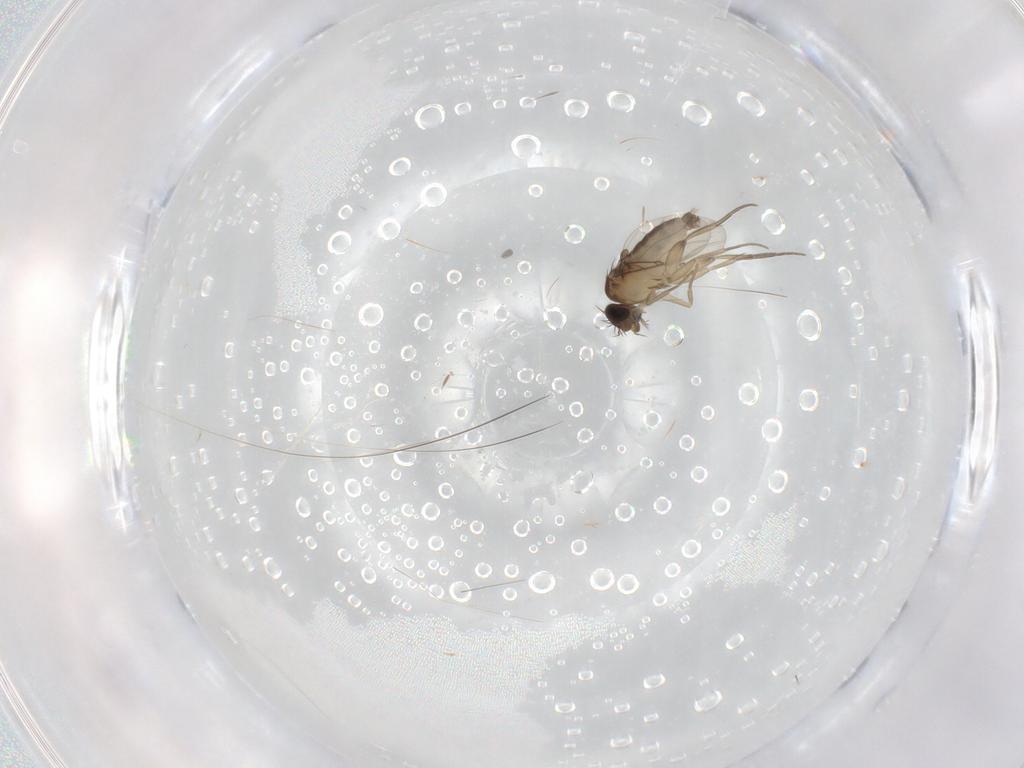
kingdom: Animalia
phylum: Arthropoda
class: Insecta
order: Diptera
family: Phoridae
